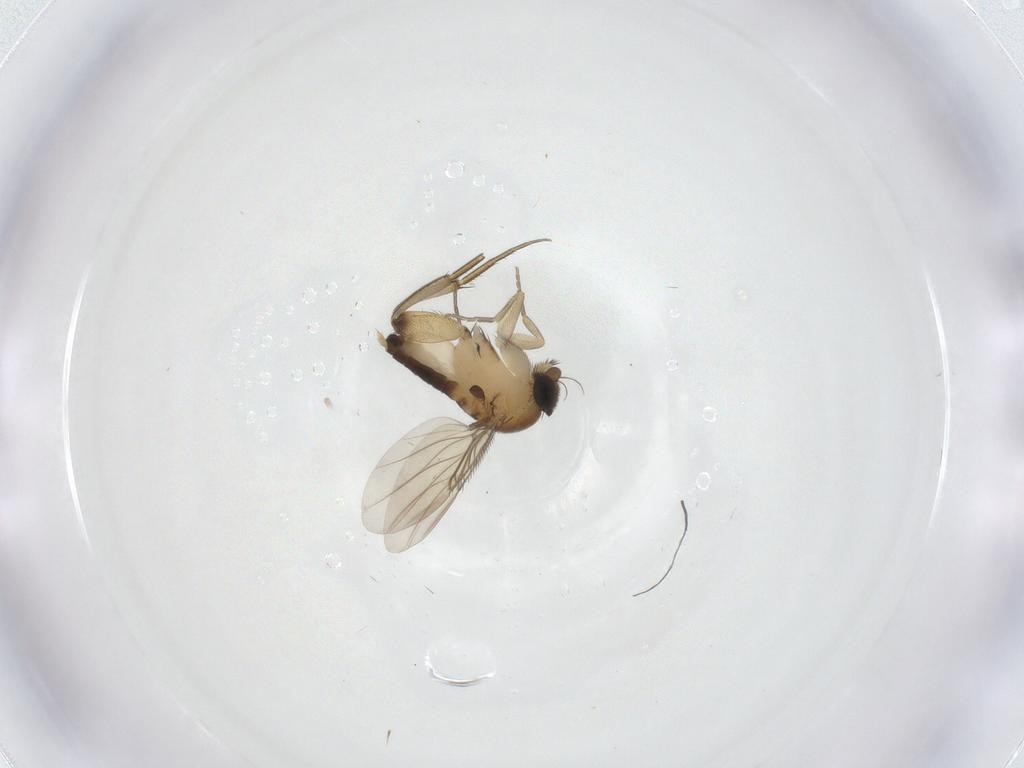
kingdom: Animalia
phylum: Arthropoda
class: Insecta
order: Diptera
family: Phoridae
